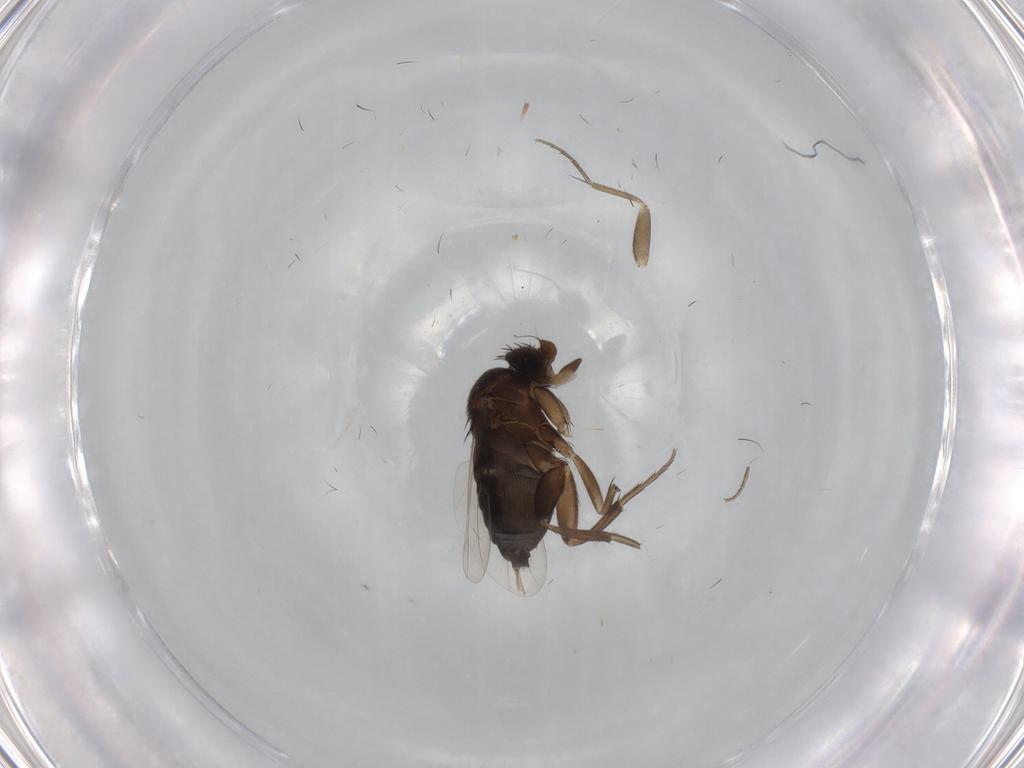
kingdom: Animalia
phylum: Arthropoda
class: Insecta
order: Diptera
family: Phoridae
